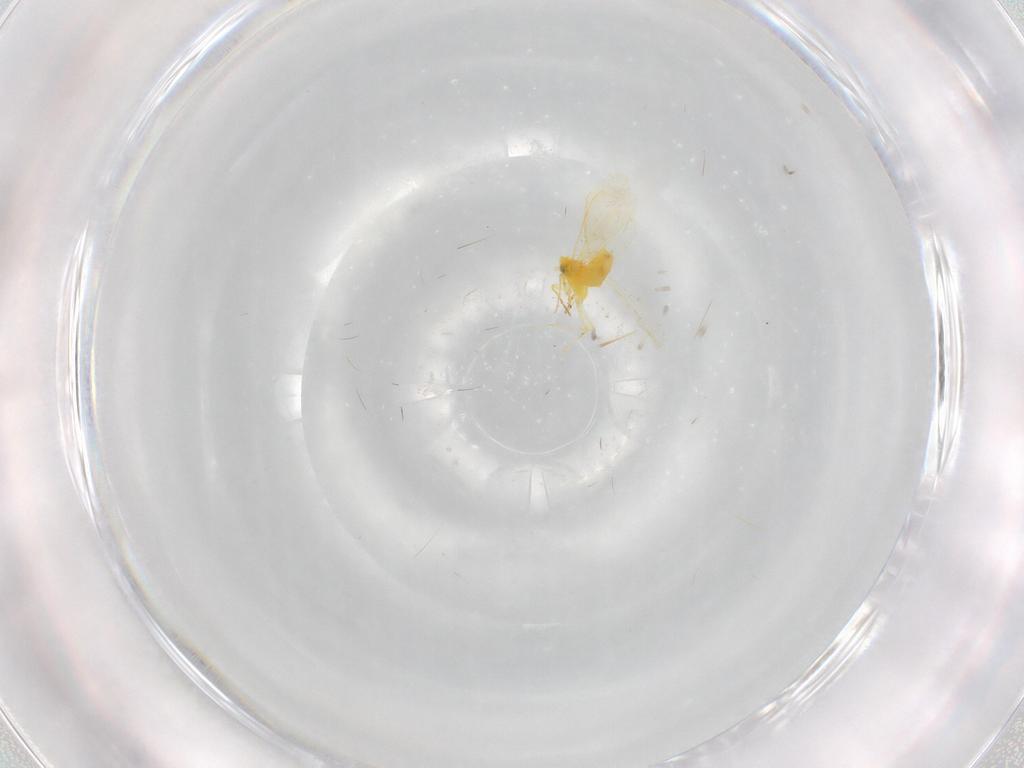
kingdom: Animalia
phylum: Arthropoda
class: Insecta
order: Hemiptera
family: Aleyrodidae
